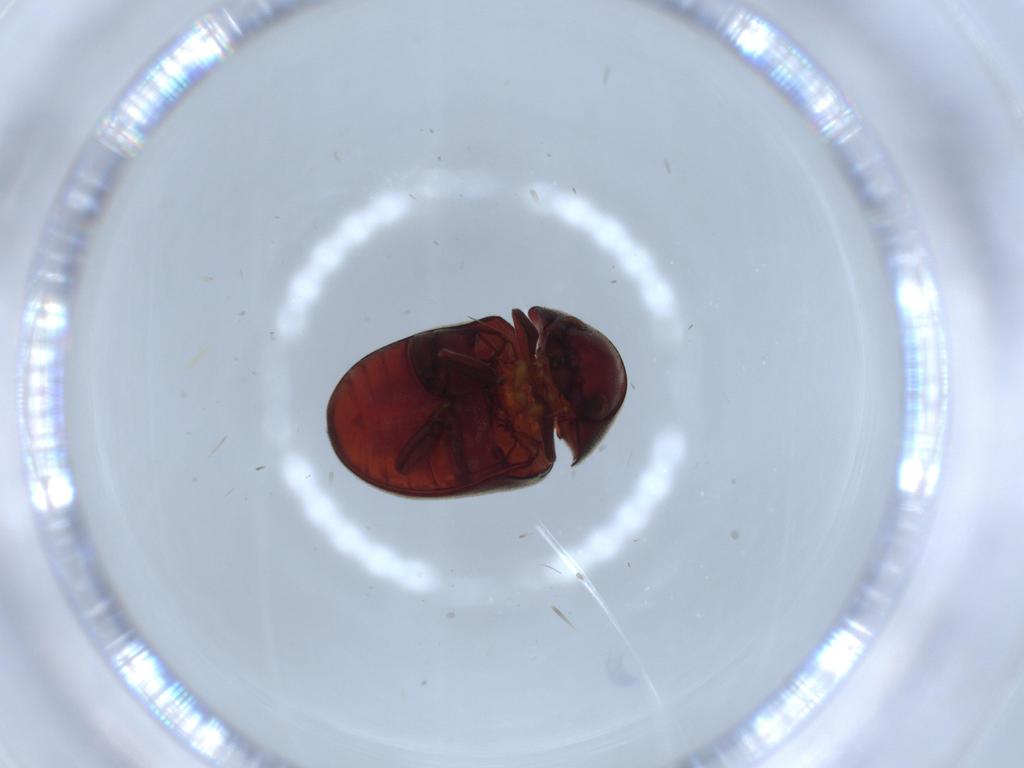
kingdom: Animalia
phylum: Arthropoda
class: Insecta
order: Coleoptera
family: Ptinidae
